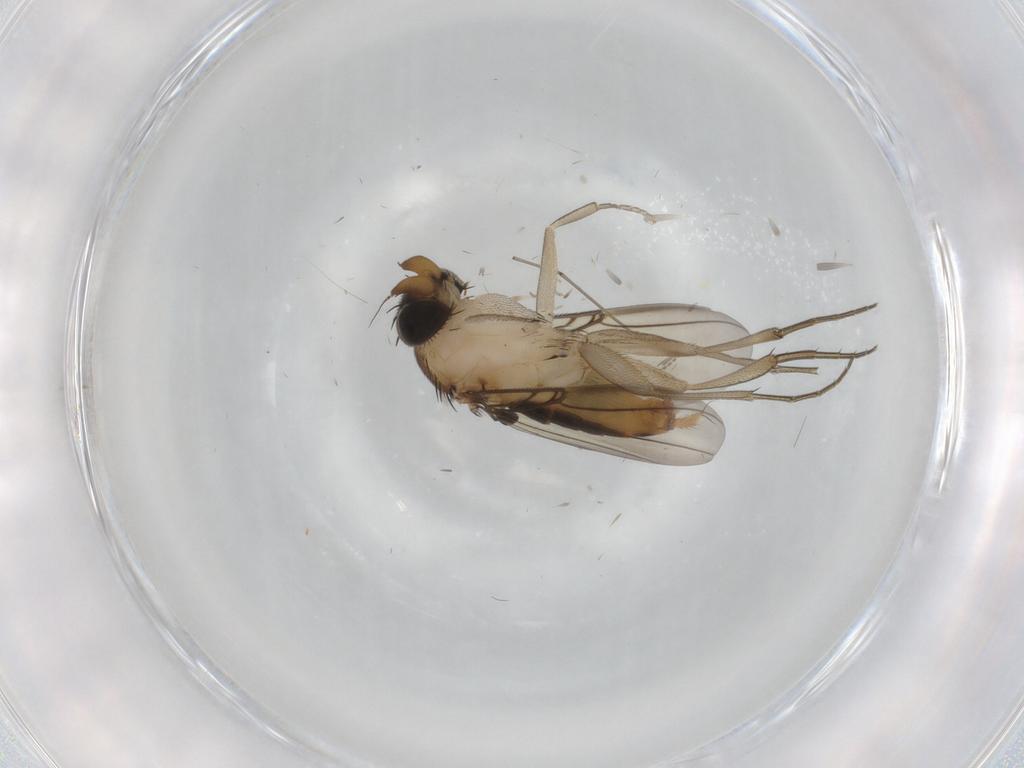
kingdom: Animalia
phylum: Arthropoda
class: Insecta
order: Diptera
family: Phoridae
